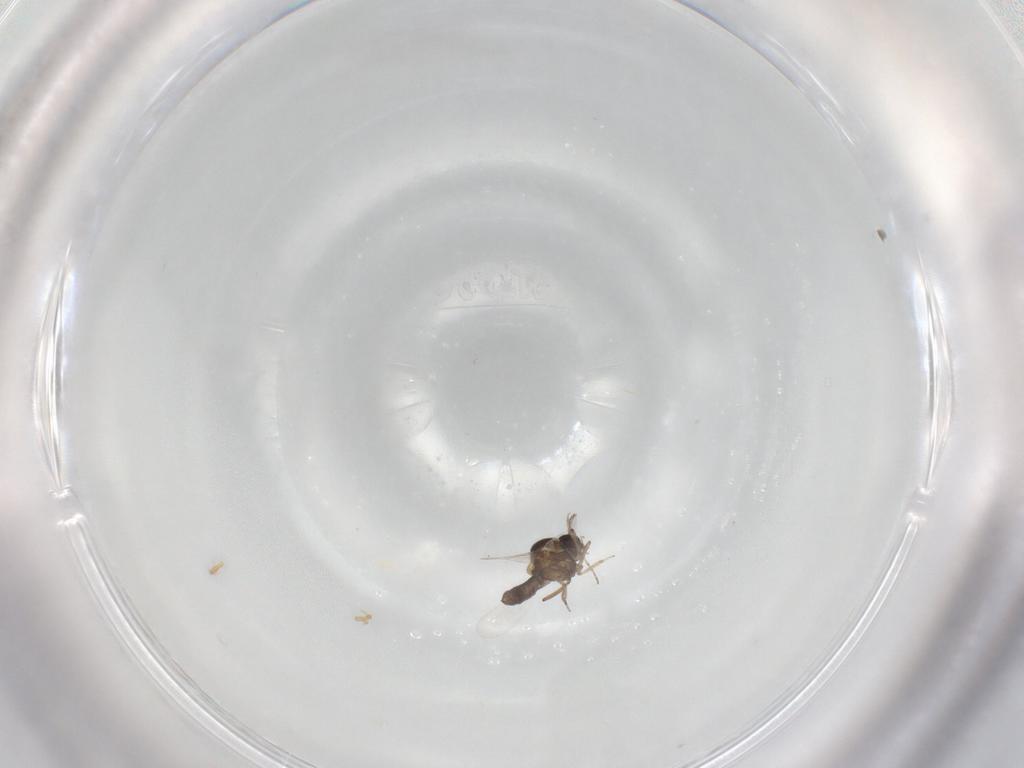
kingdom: Animalia
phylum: Arthropoda
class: Insecta
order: Diptera
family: Ceratopogonidae
